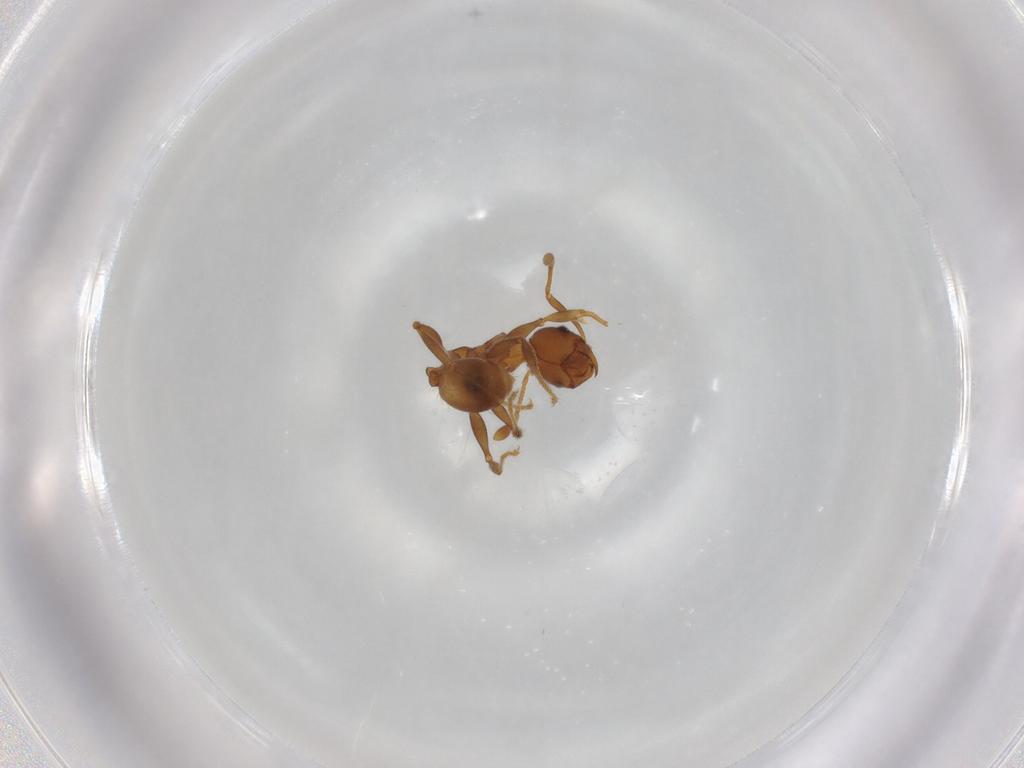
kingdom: Animalia
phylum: Arthropoda
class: Insecta
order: Hymenoptera
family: Formicidae
